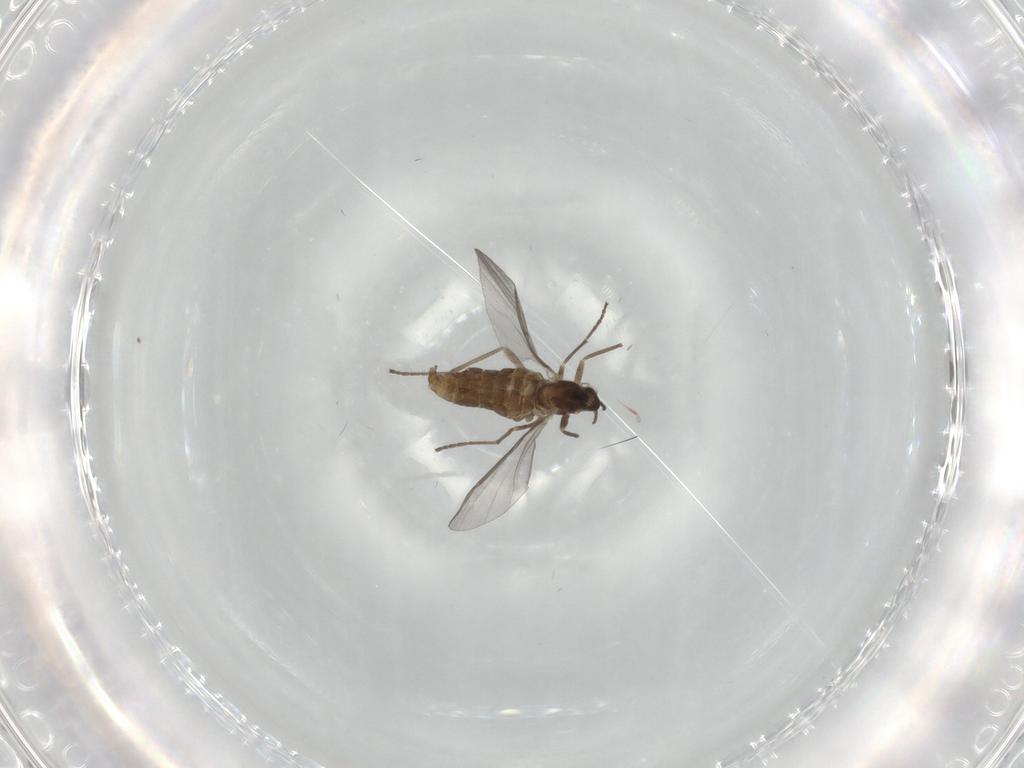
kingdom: Animalia
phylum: Arthropoda
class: Insecta
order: Diptera
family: Cecidomyiidae
